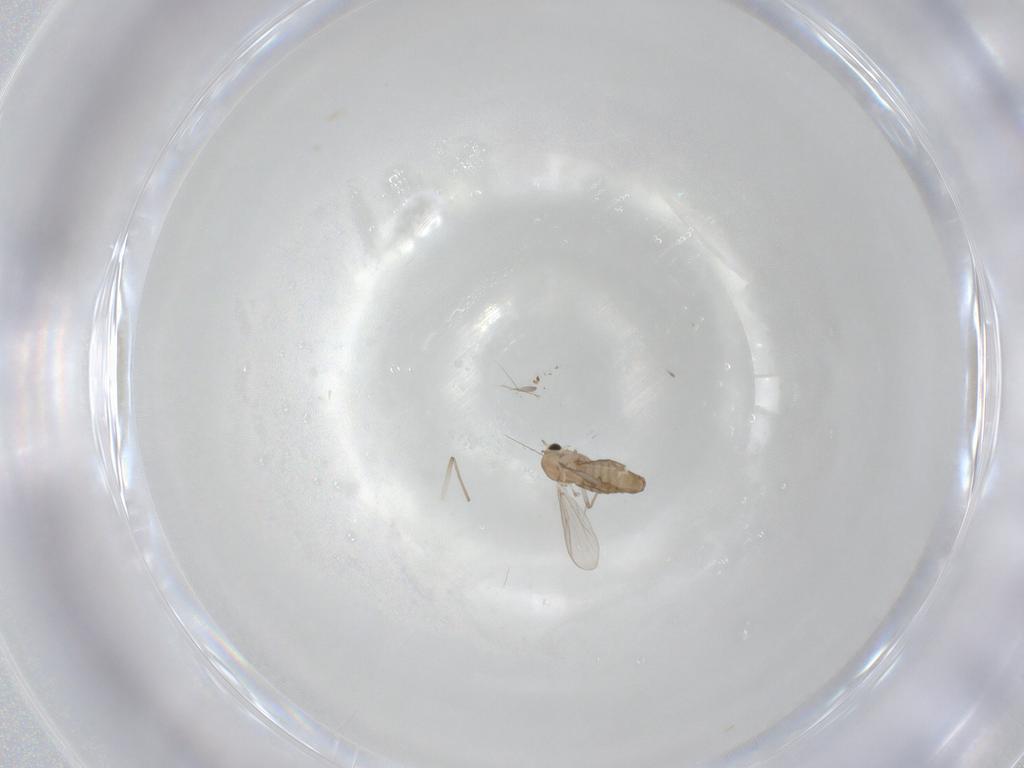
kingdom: Animalia
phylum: Arthropoda
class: Insecta
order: Diptera
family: Chironomidae
